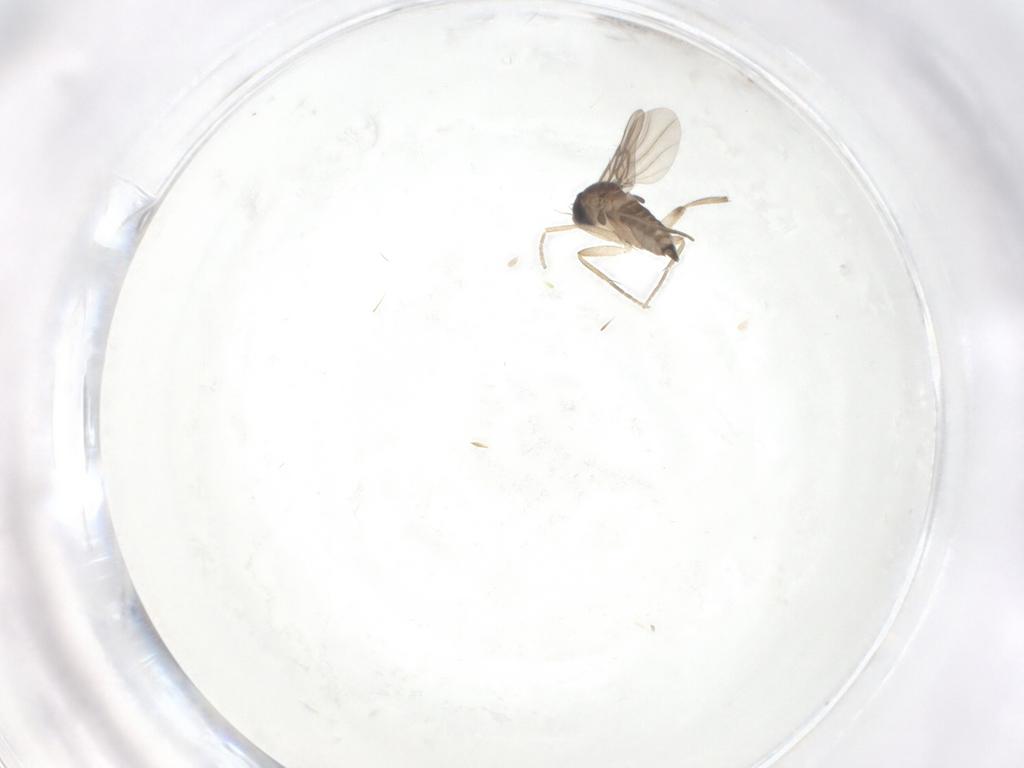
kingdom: Animalia
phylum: Arthropoda
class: Insecta
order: Diptera
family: Phoridae
